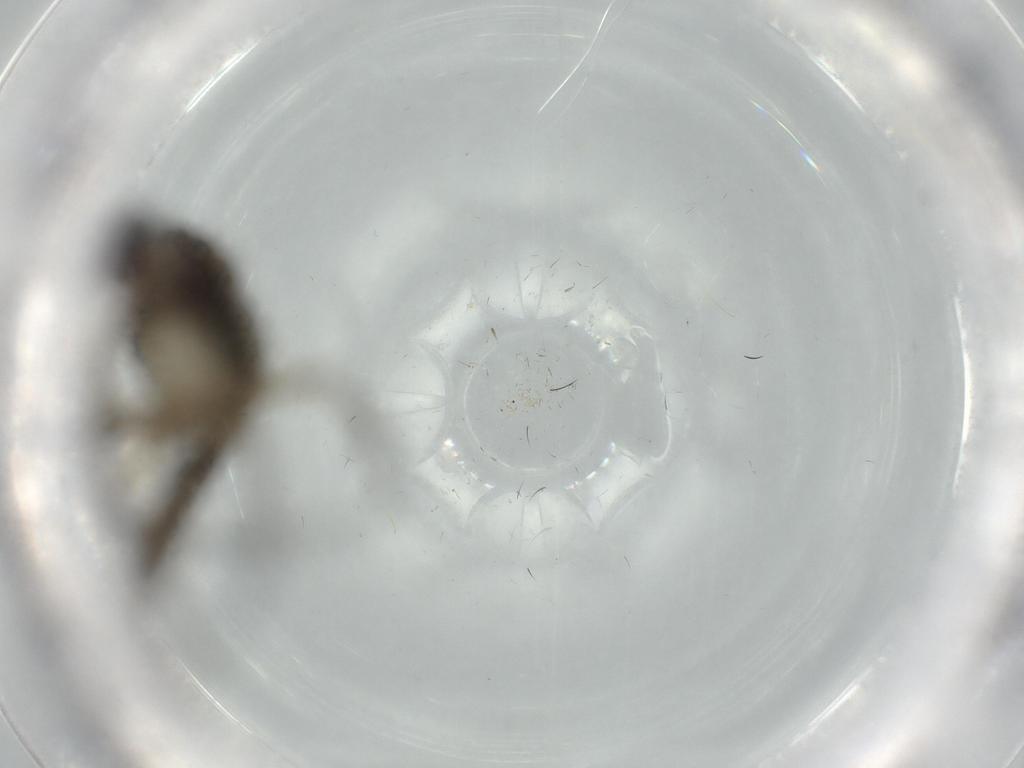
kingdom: Animalia
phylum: Arthropoda
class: Insecta
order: Diptera
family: Phoridae
